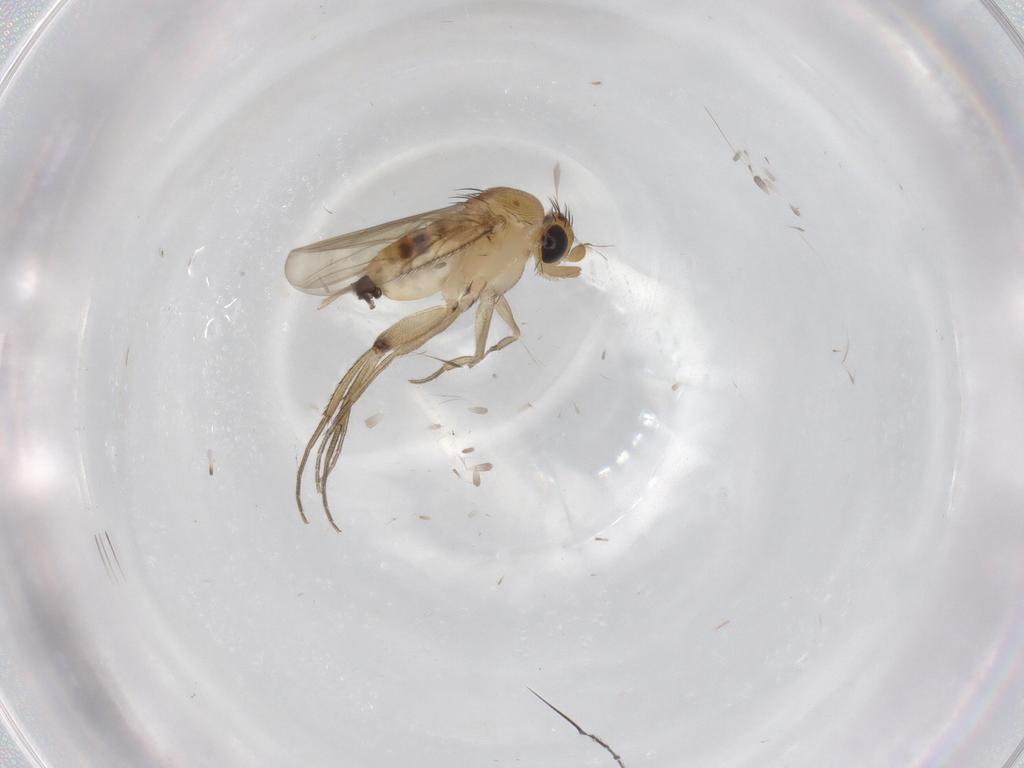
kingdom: Animalia
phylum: Arthropoda
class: Insecta
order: Diptera
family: Phoridae
